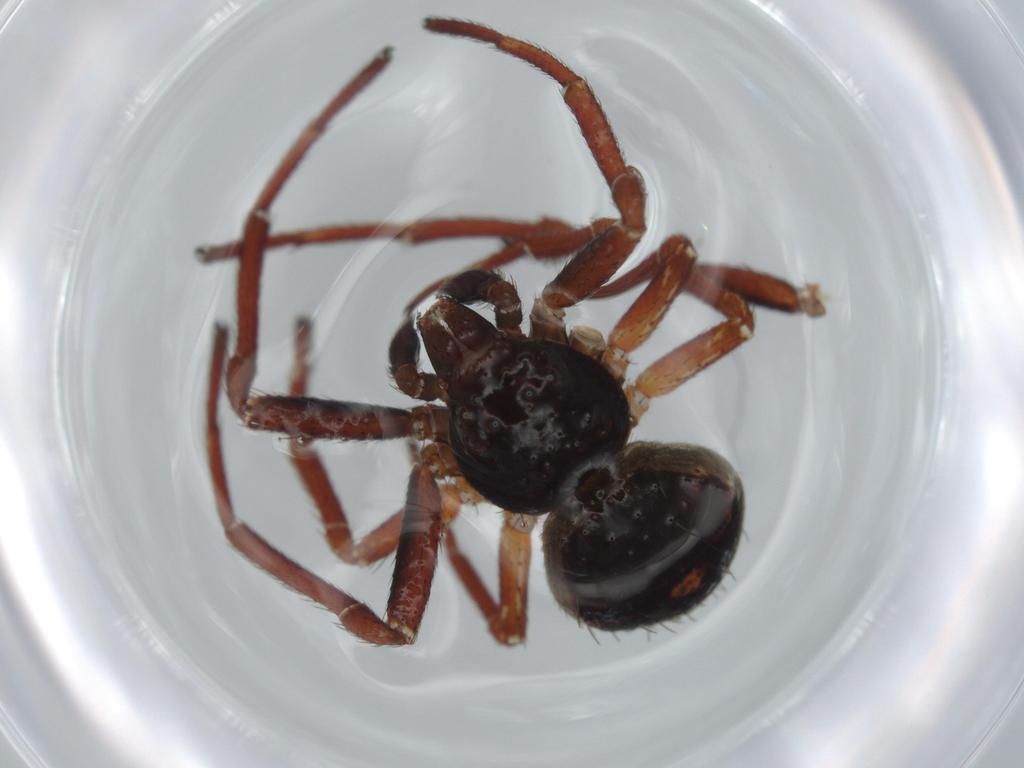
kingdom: Animalia
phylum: Arthropoda
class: Arachnida
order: Araneae
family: Thomisidae
